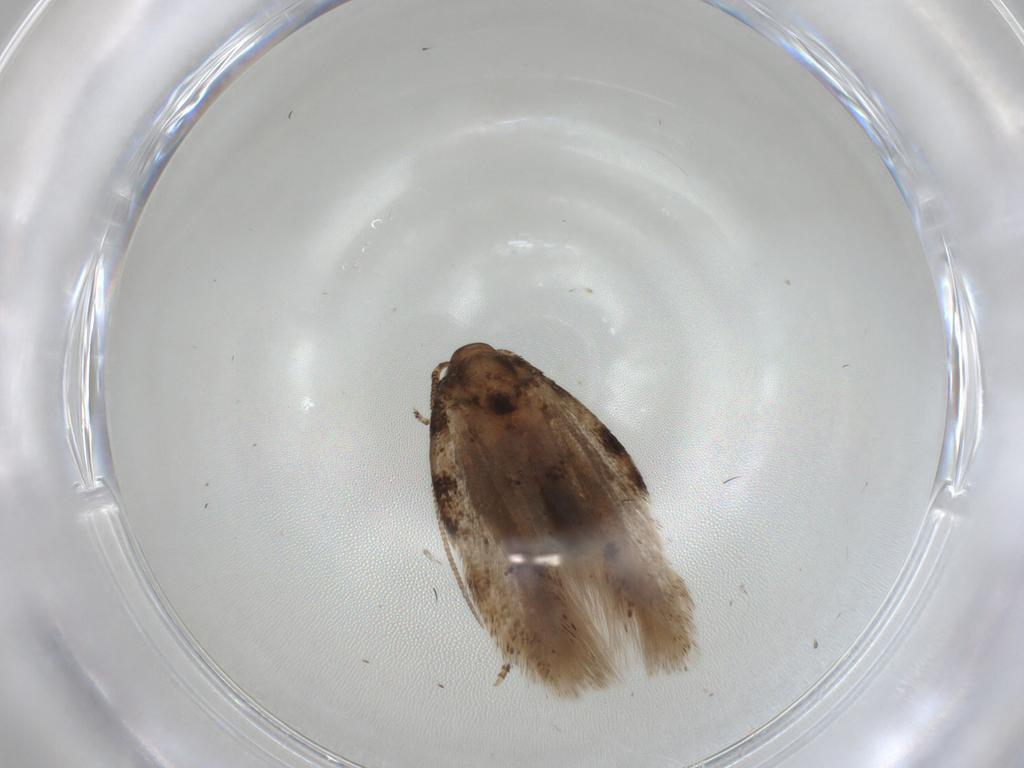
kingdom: Animalia
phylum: Arthropoda
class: Insecta
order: Lepidoptera
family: Gelechiidae
